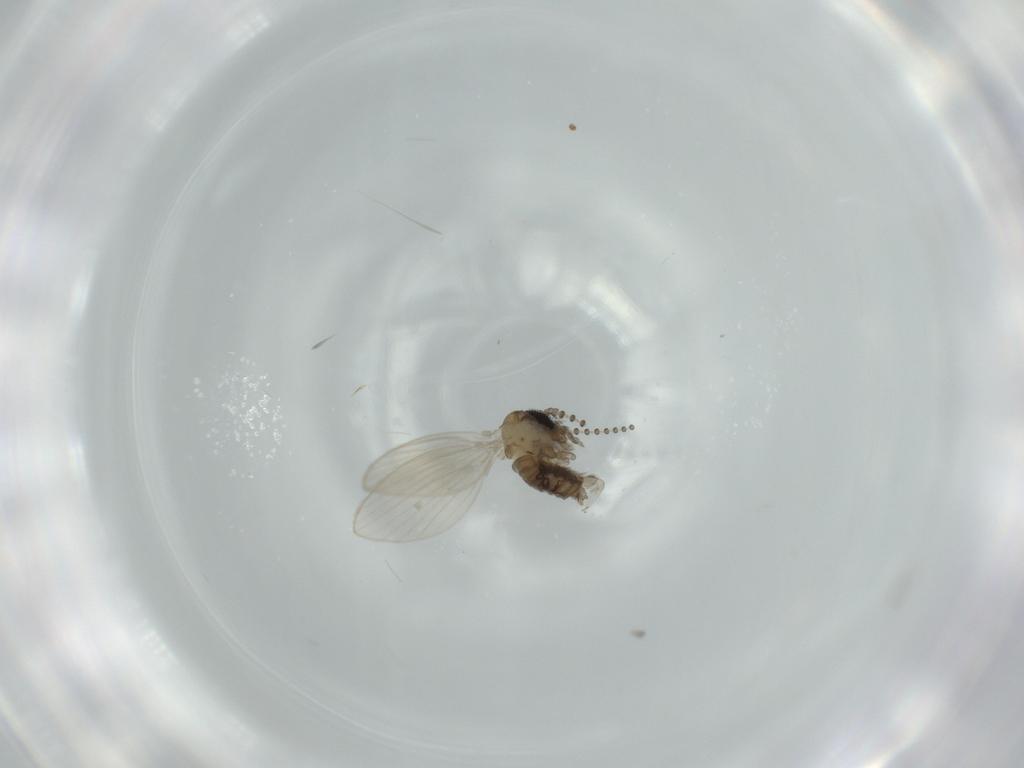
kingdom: Animalia
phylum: Arthropoda
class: Insecta
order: Diptera
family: Psychodidae
